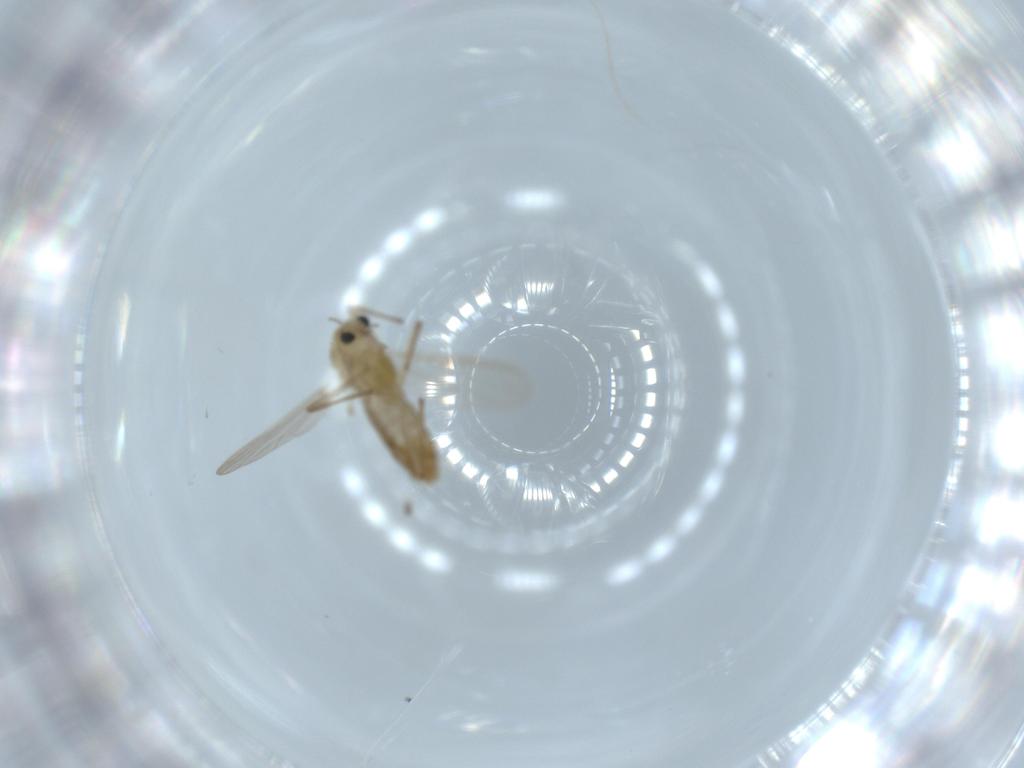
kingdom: Animalia
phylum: Arthropoda
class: Insecta
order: Diptera
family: Chironomidae
